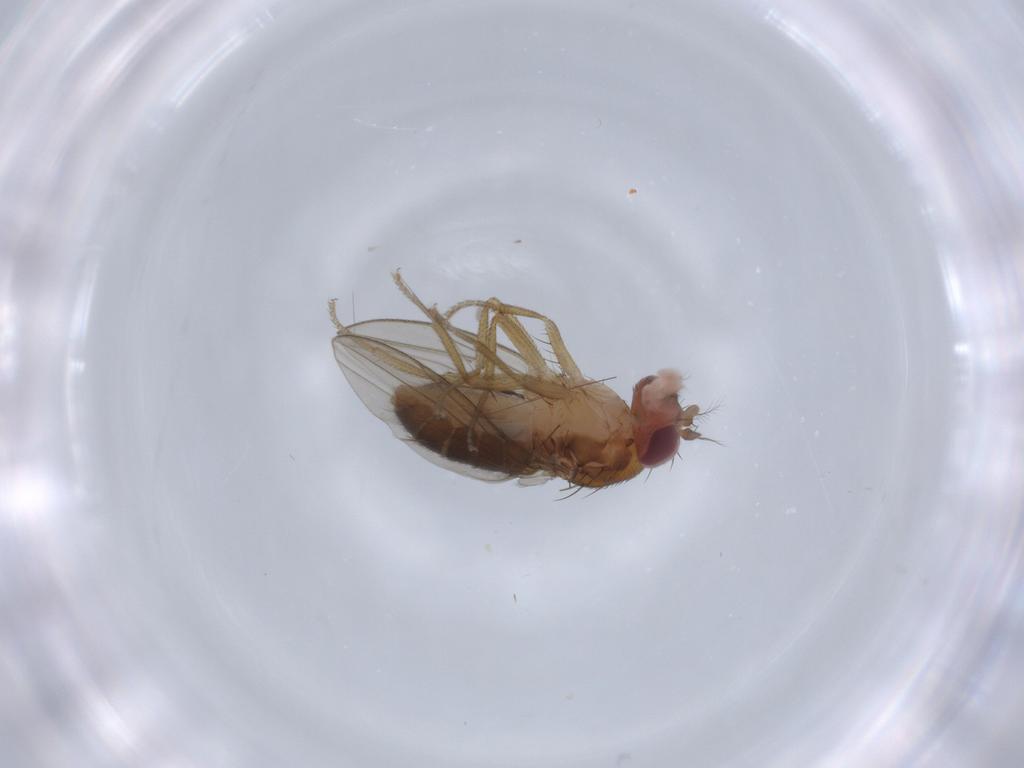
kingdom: Animalia
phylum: Arthropoda
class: Insecta
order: Diptera
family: Drosophilidae
